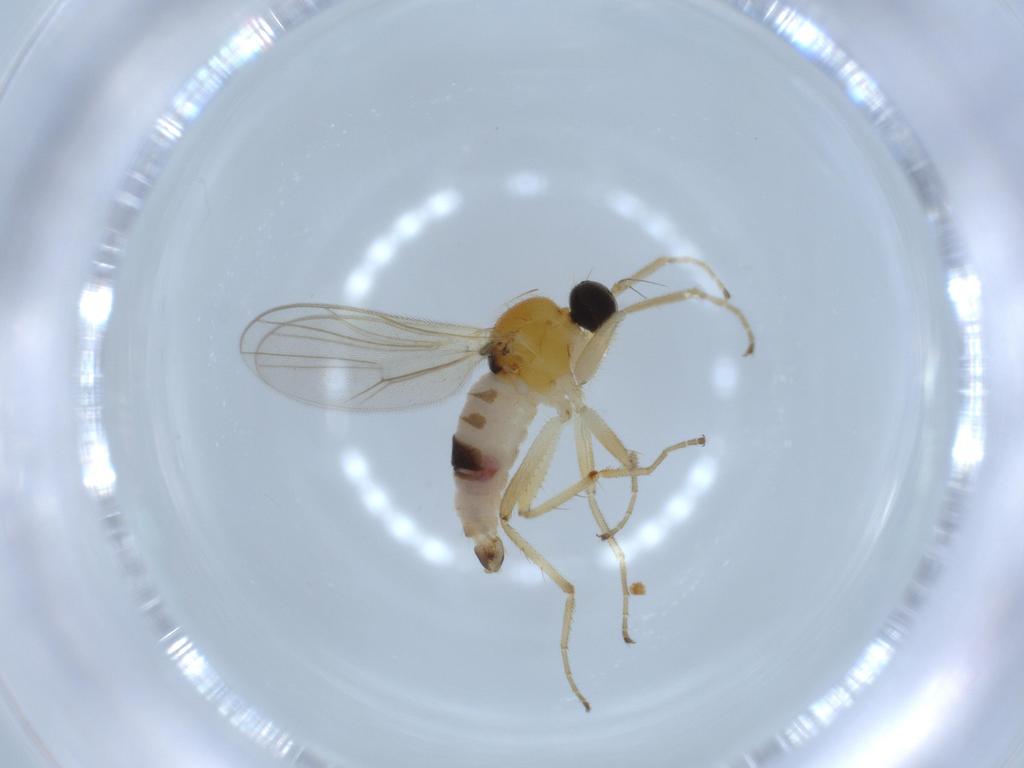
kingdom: Animalia
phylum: Arthropoda
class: Insecta
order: Diptera
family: Hybotidae
